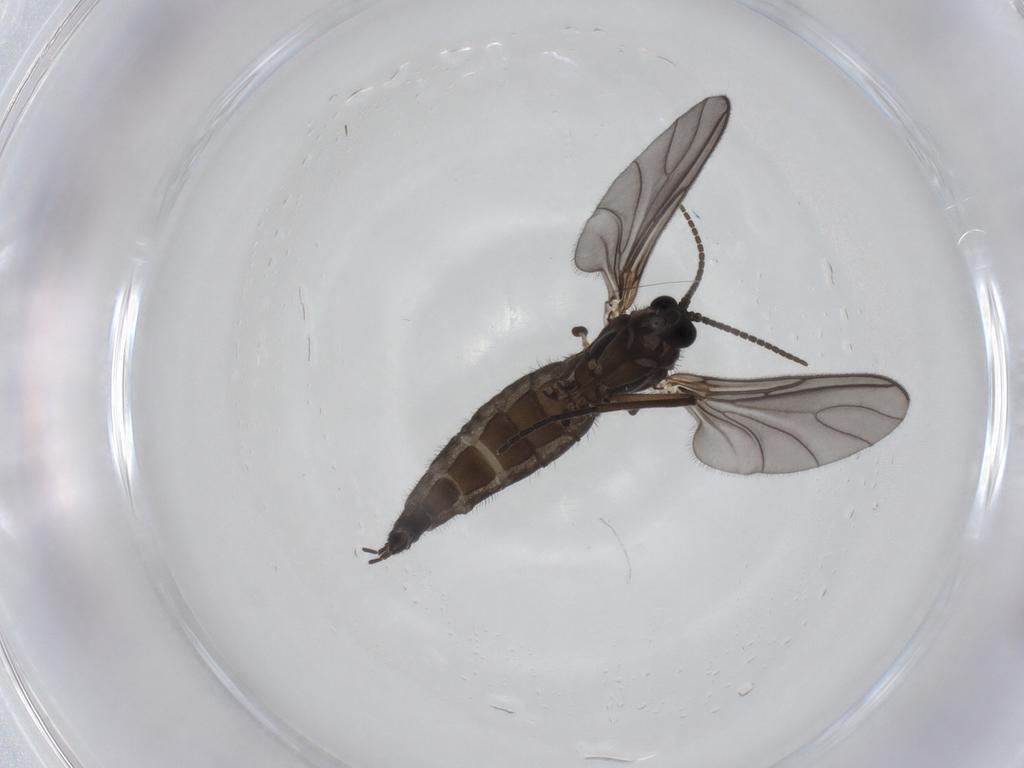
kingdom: Animalia
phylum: Arthropoda
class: Insecta
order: Diptera
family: Sciaridae
